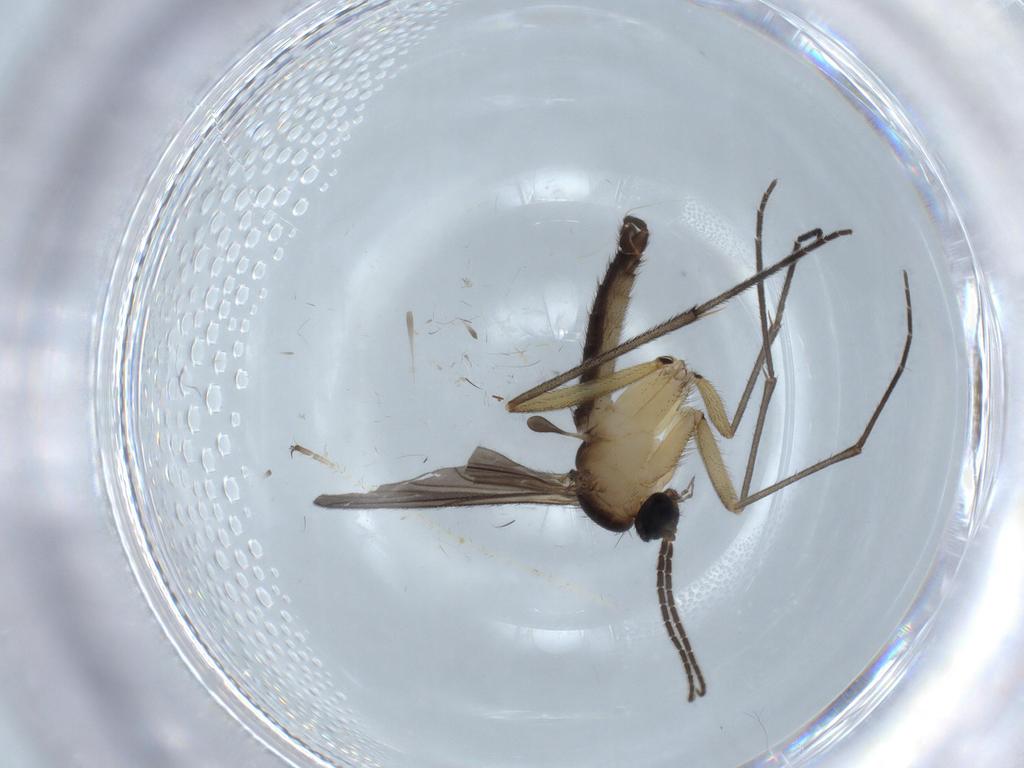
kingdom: Animalia
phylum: Arthropoda
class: Insecta
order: Diptera
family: Sciaridae
